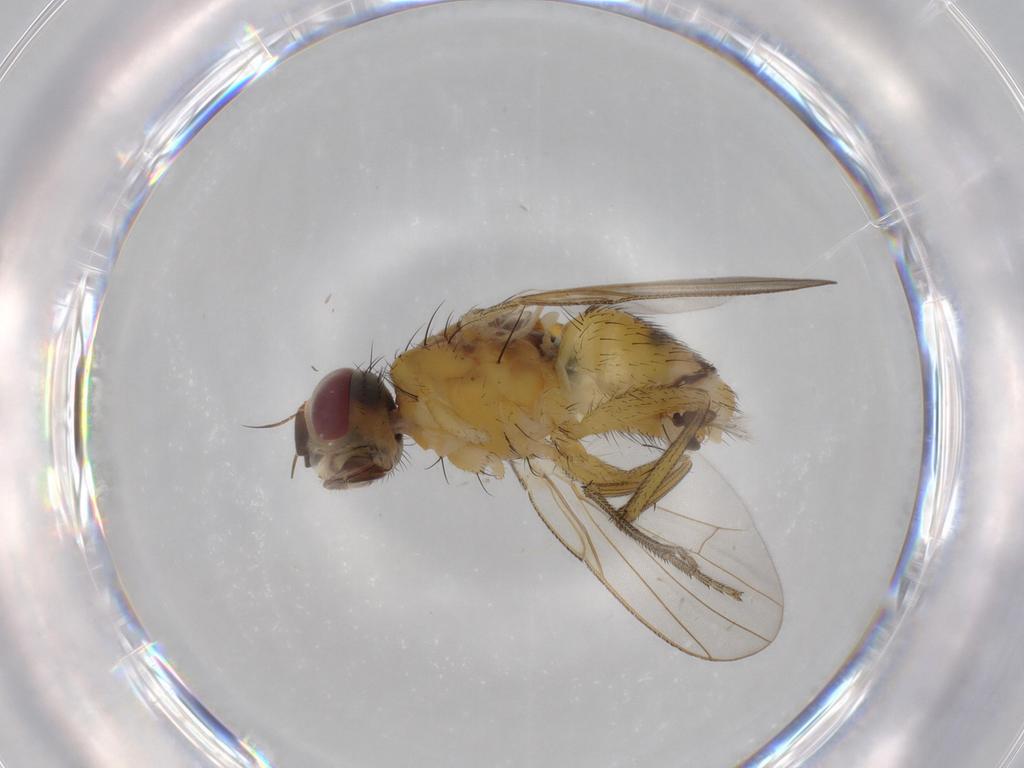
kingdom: Animalia
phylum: Arthropoda
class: Insecta
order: Diptera
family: Muscidae
